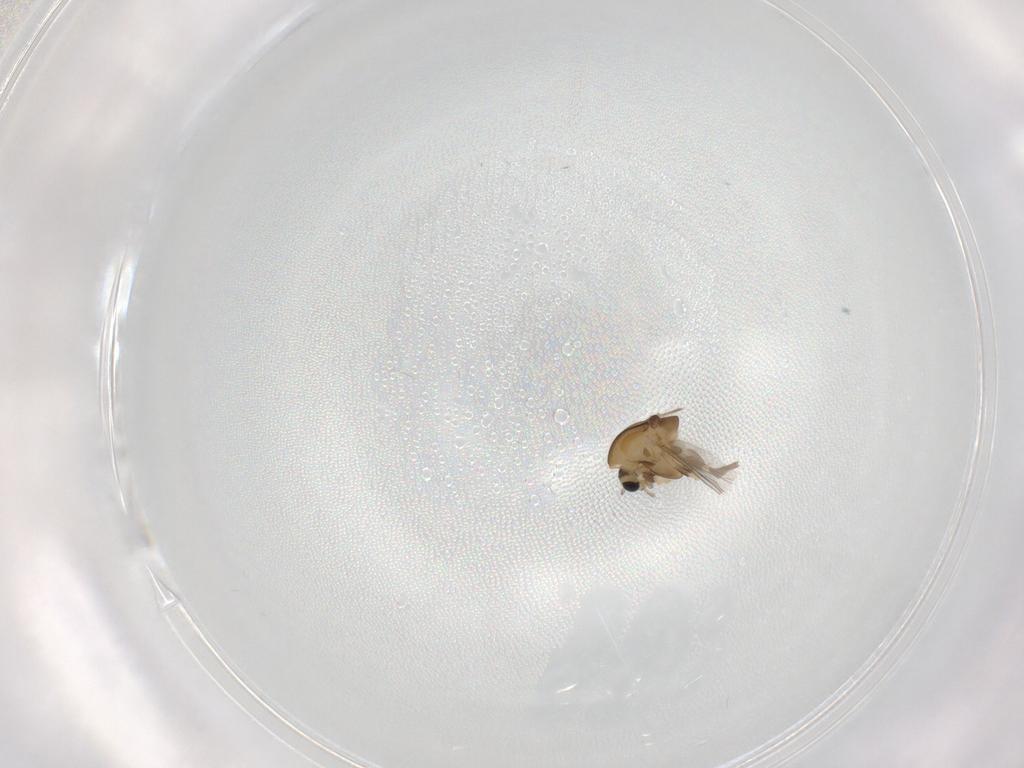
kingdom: Animalia
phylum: Arthropoda
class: Insecta
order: Diptera
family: Chironomidae
